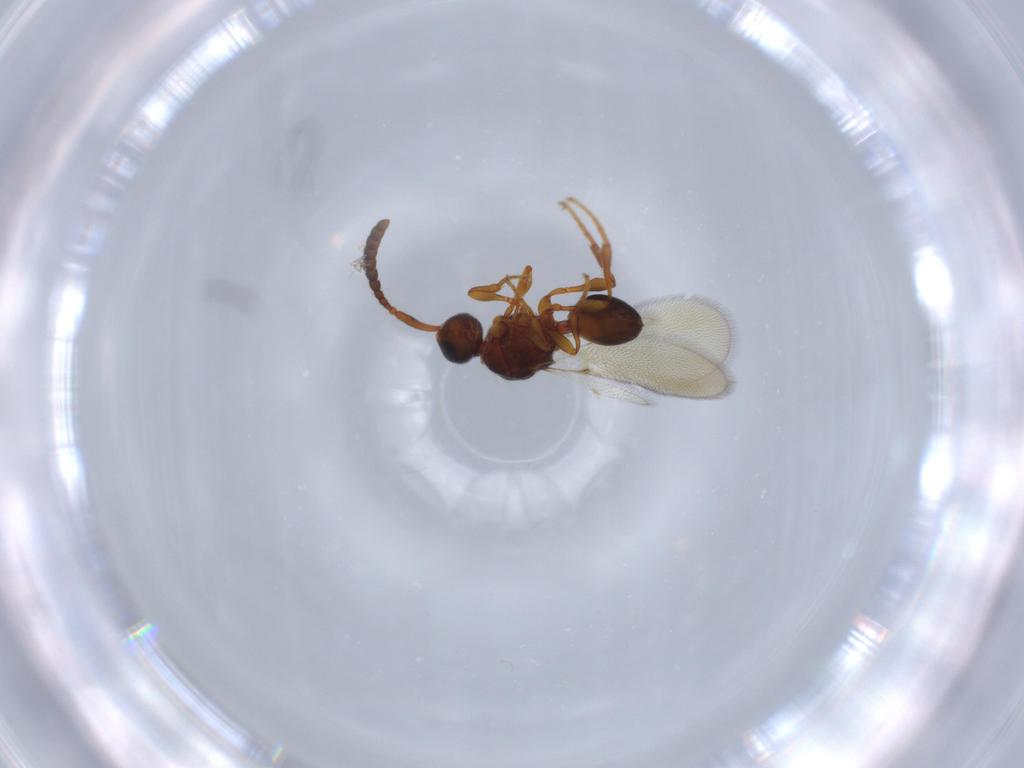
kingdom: Animalia
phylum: Arthropoda
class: Insecta
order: Hymenoptera
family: Diapriidae
